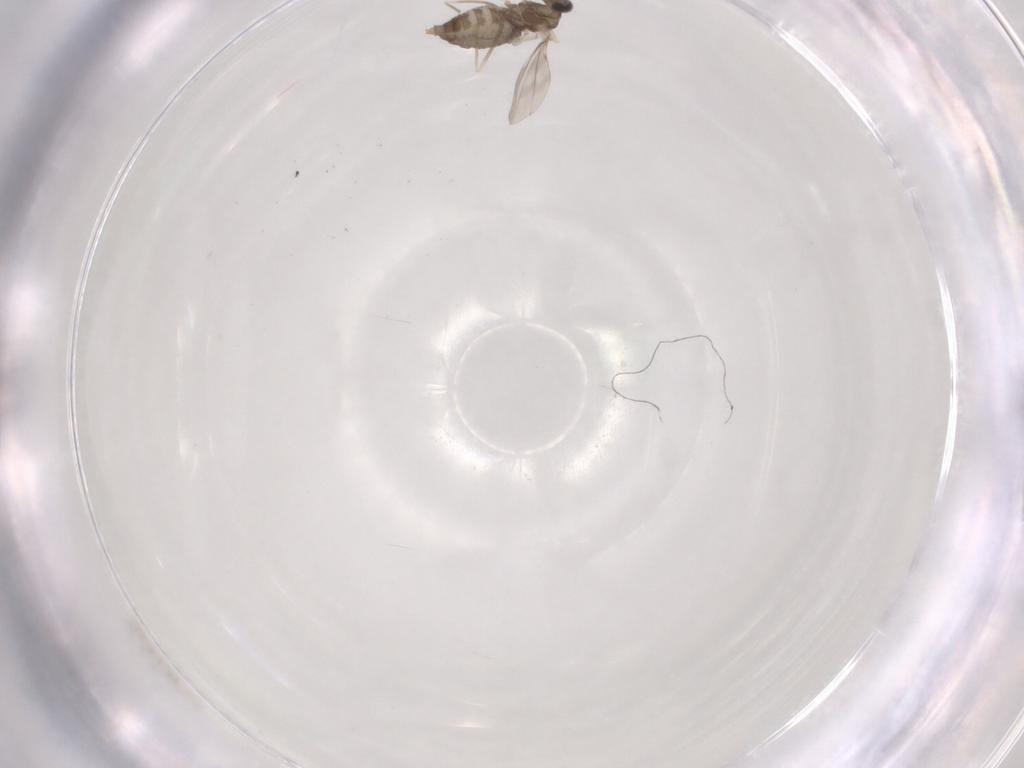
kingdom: Animalia
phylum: Arthropoda
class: Insecta
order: Diptera
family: Cecidomyiidae
